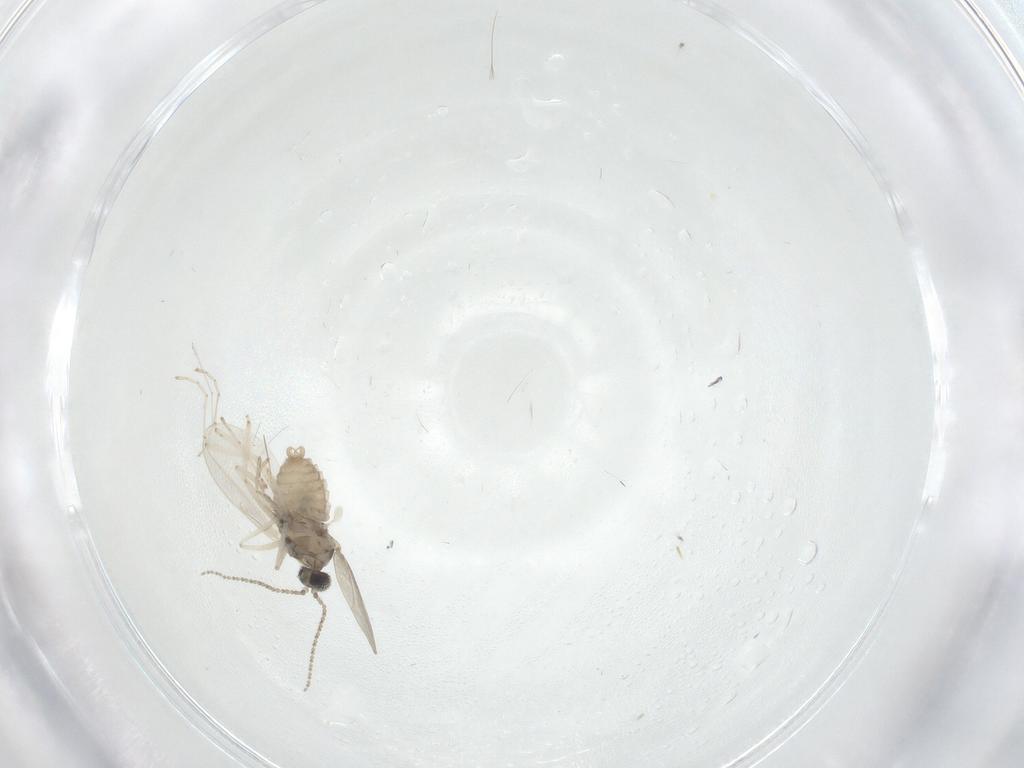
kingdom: Animalia
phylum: Arthropoda
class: Insecta
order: Diptera
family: Cecidomyiidae
